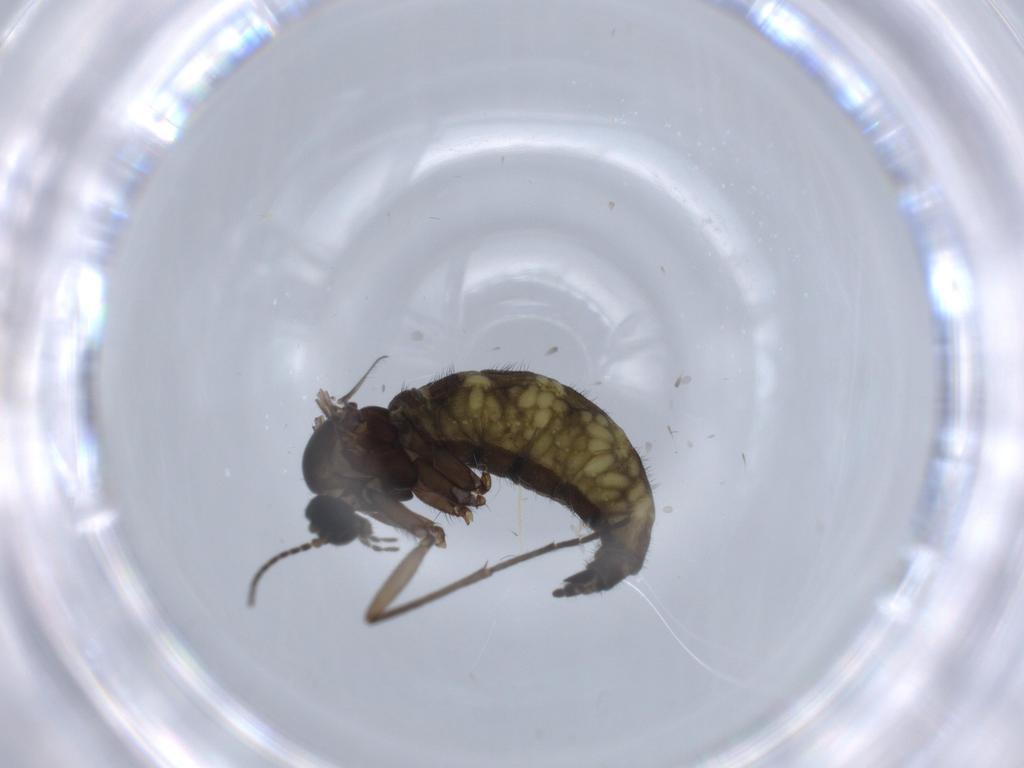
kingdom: Animalia
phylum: Arthropoda
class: Insecta
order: Diptera
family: Sciaridae
